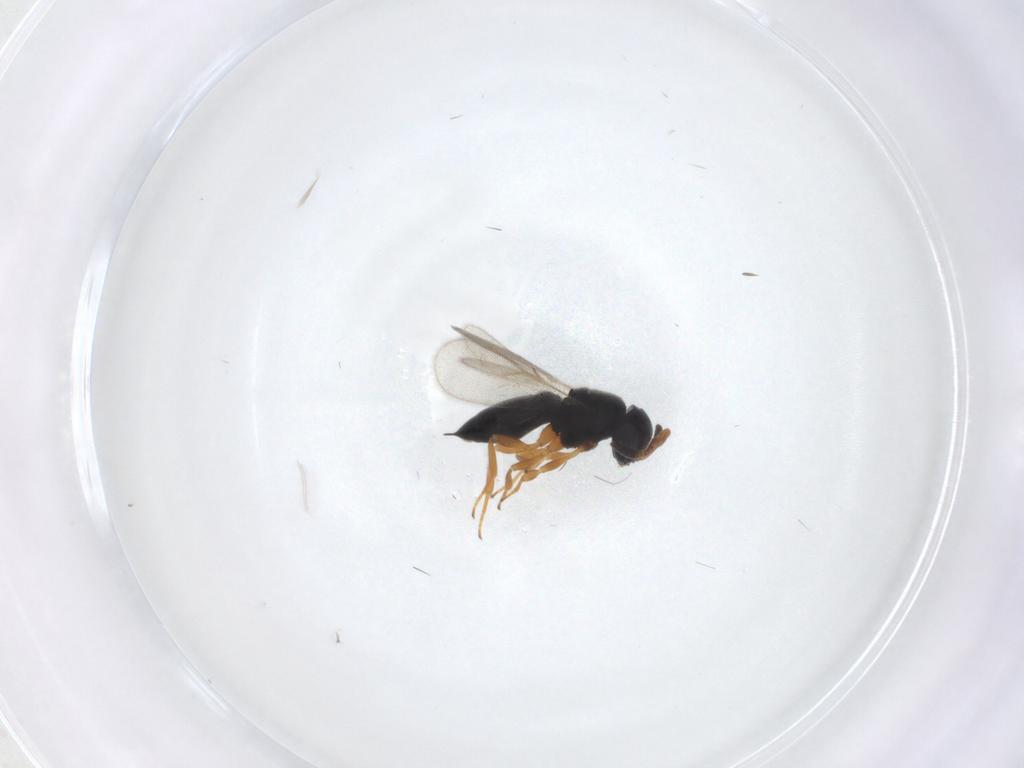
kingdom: Animalia
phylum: Arthropoda
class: Insecta
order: Hymenoptera
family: Scelionidae
